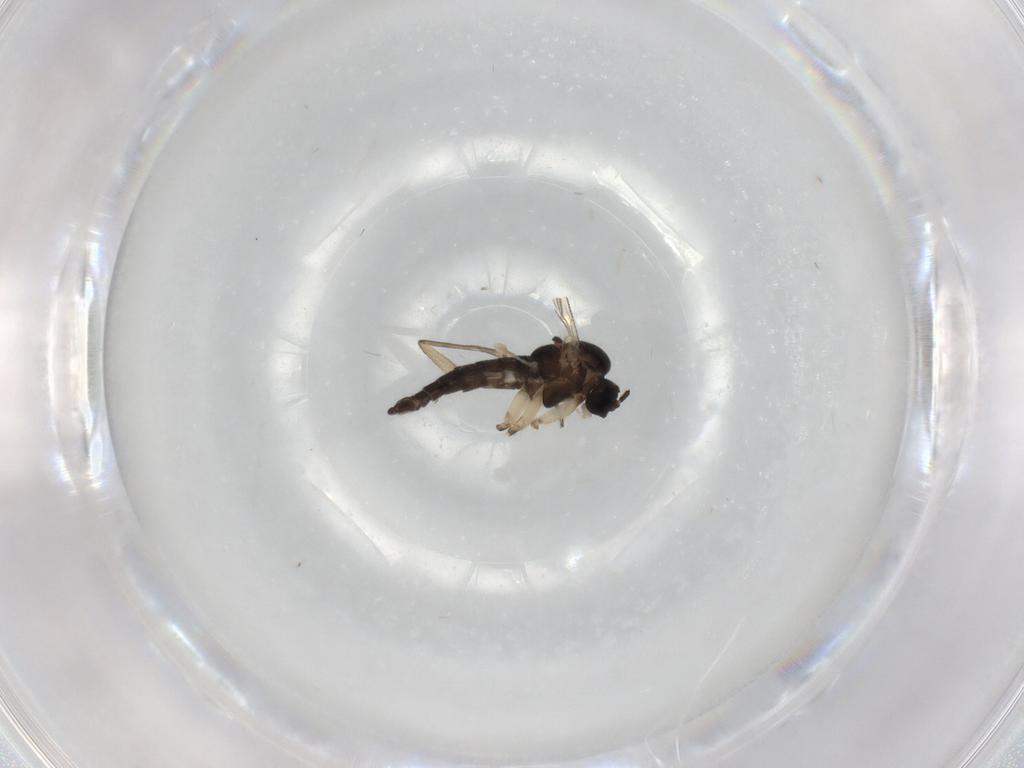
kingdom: Animalia
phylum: Arthropoda
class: Insecta
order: Diptera
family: Sciaridae
